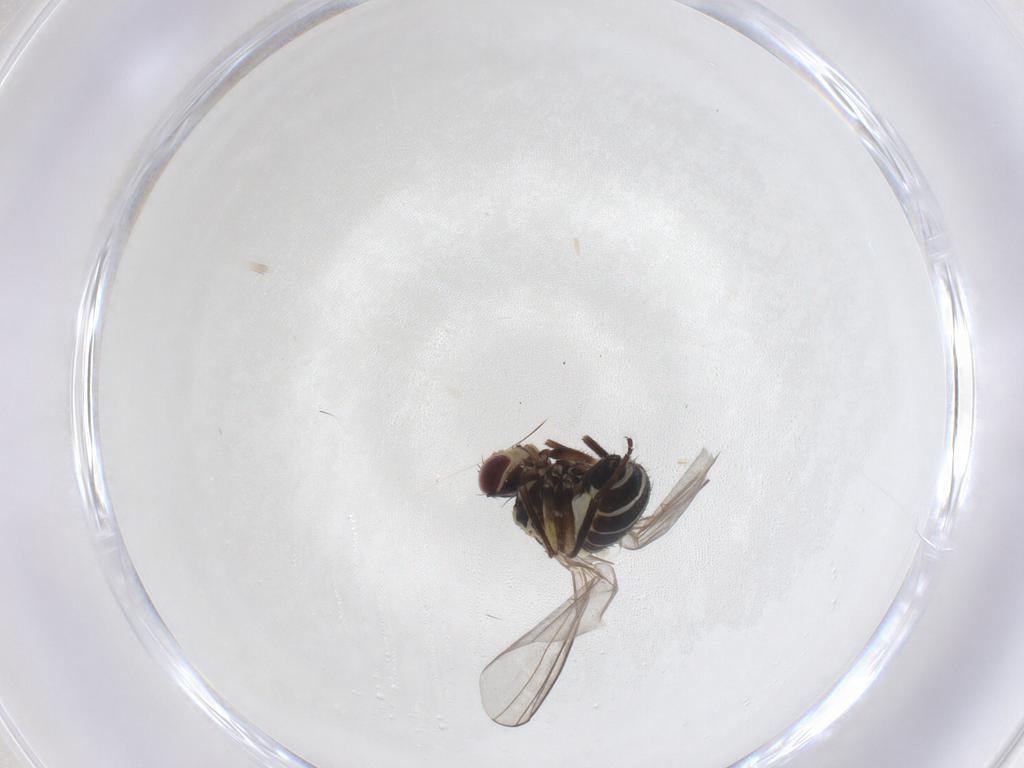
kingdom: Animalia
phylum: Arthropoda
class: Insecta
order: Diptera
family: Agromyzidae
